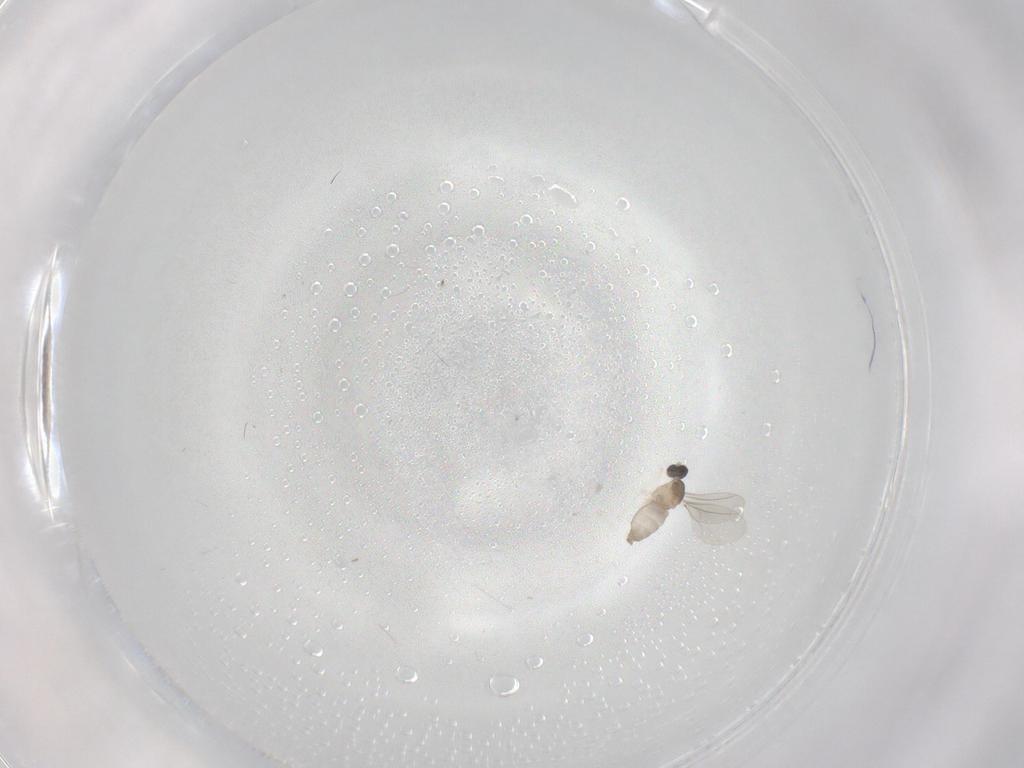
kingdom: Animalia
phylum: Arthropoda
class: Insecta
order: Diptera
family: Cecidomyiidae
